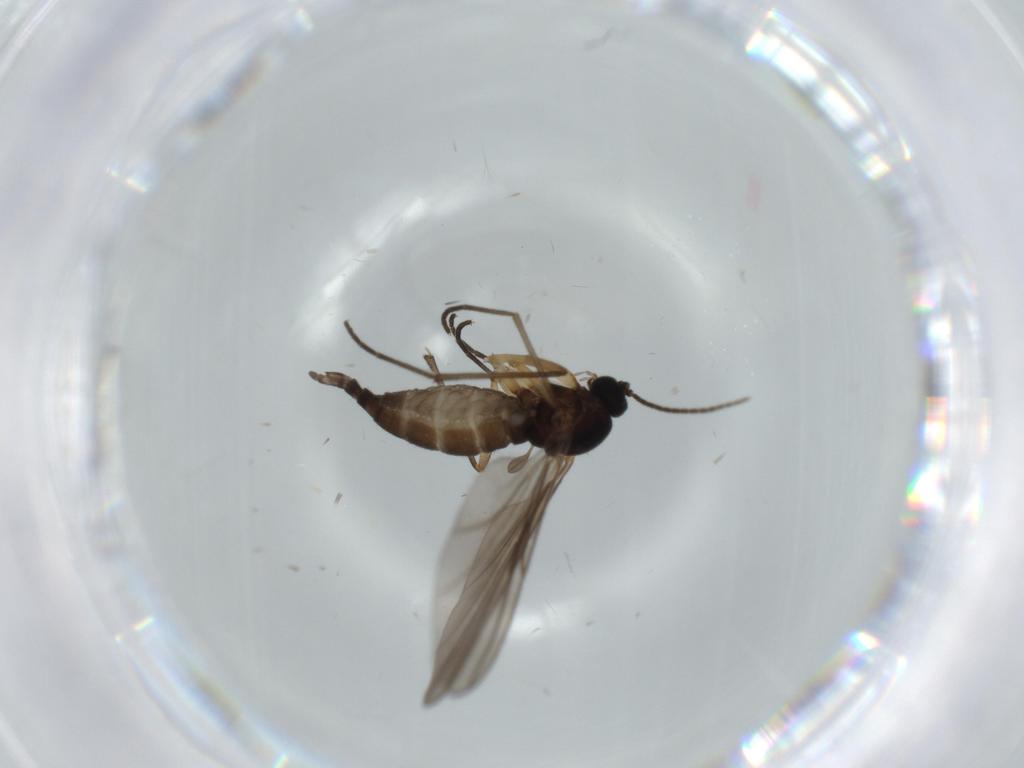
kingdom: Animalia
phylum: Arthropoda
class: Insecta
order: Diptera
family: Sciaridae
